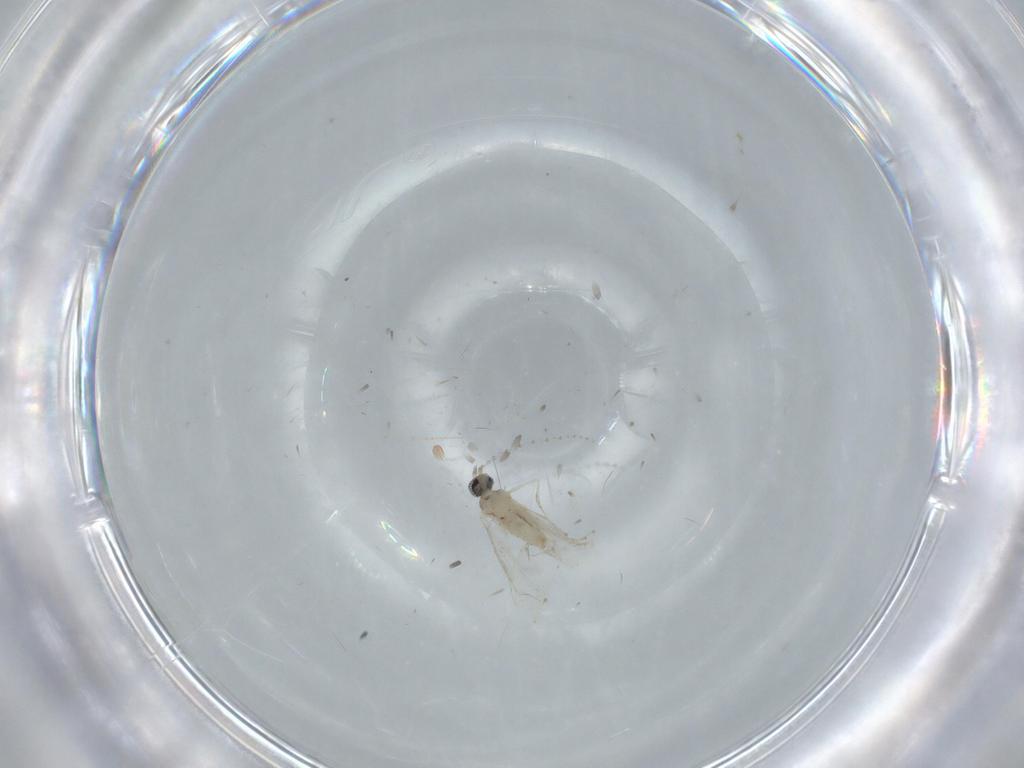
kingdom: Animalia
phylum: Arthropoda
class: Insecta
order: Diptera
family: Cecidomyiidae
